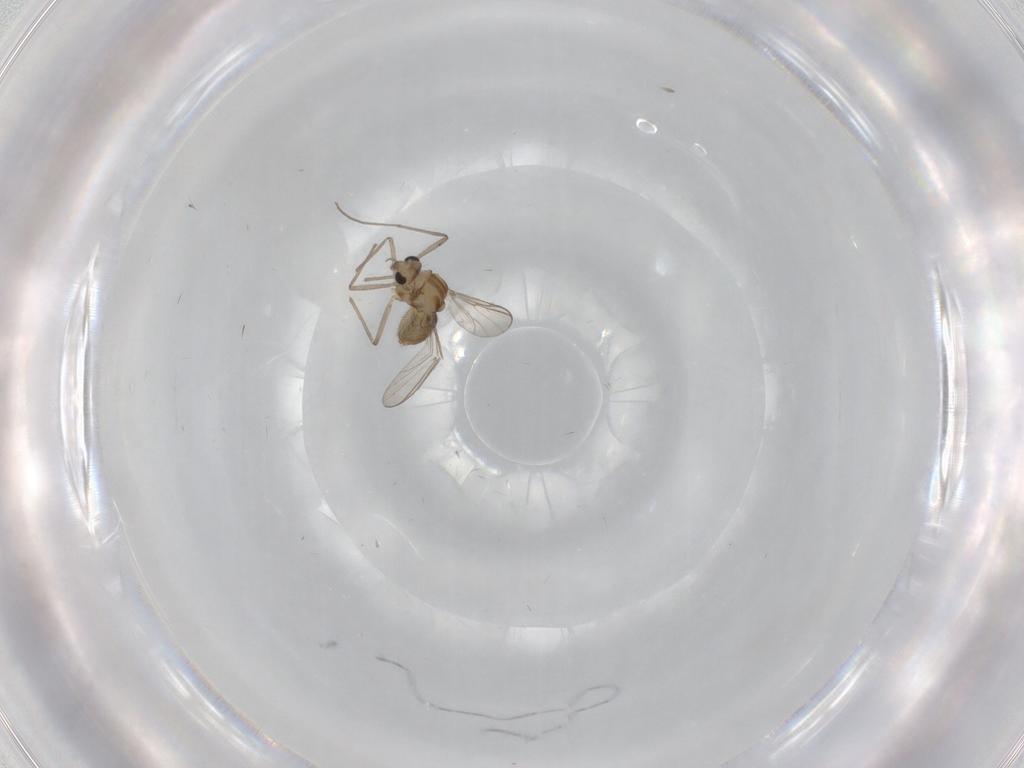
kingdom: Animalia
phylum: Arthropoda
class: Insecta
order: Diptera
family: Chironomidae
